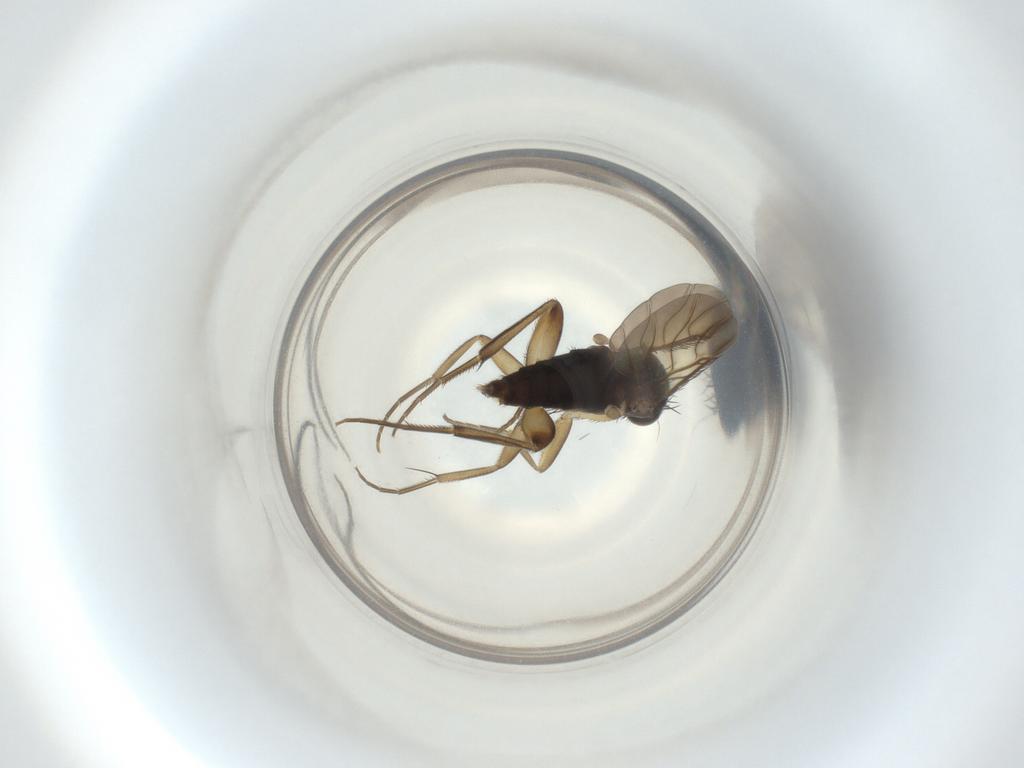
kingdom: Animalia
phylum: Arthropoda
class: Insecta
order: Diptera
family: Phoridae
